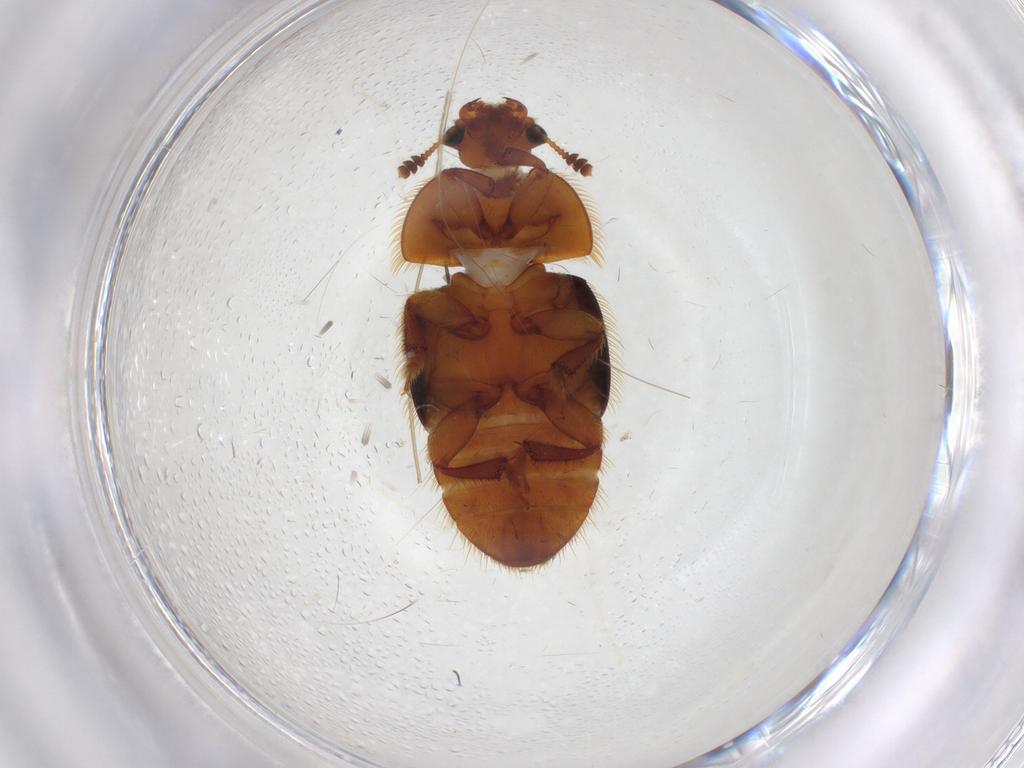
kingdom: Animalia
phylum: Arthropoda
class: Insecta
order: Coleoptera
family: Nitidulidae
